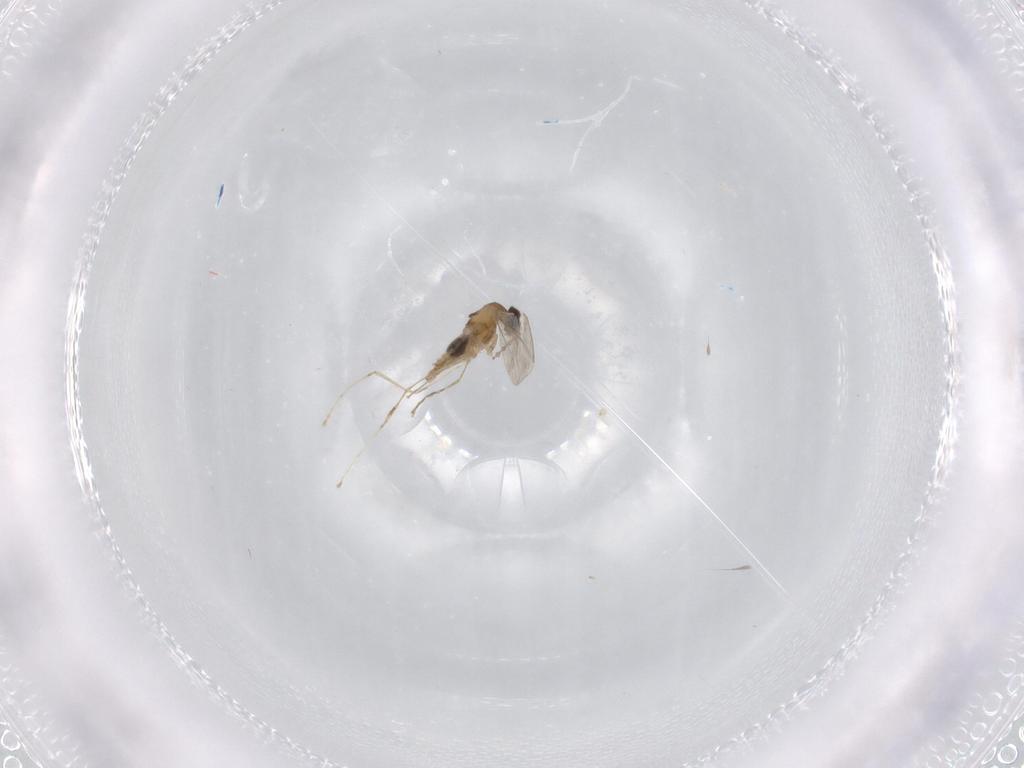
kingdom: Animalia
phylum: Arthropoda
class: Insecta
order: Diptera
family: Cecidomyiidae
